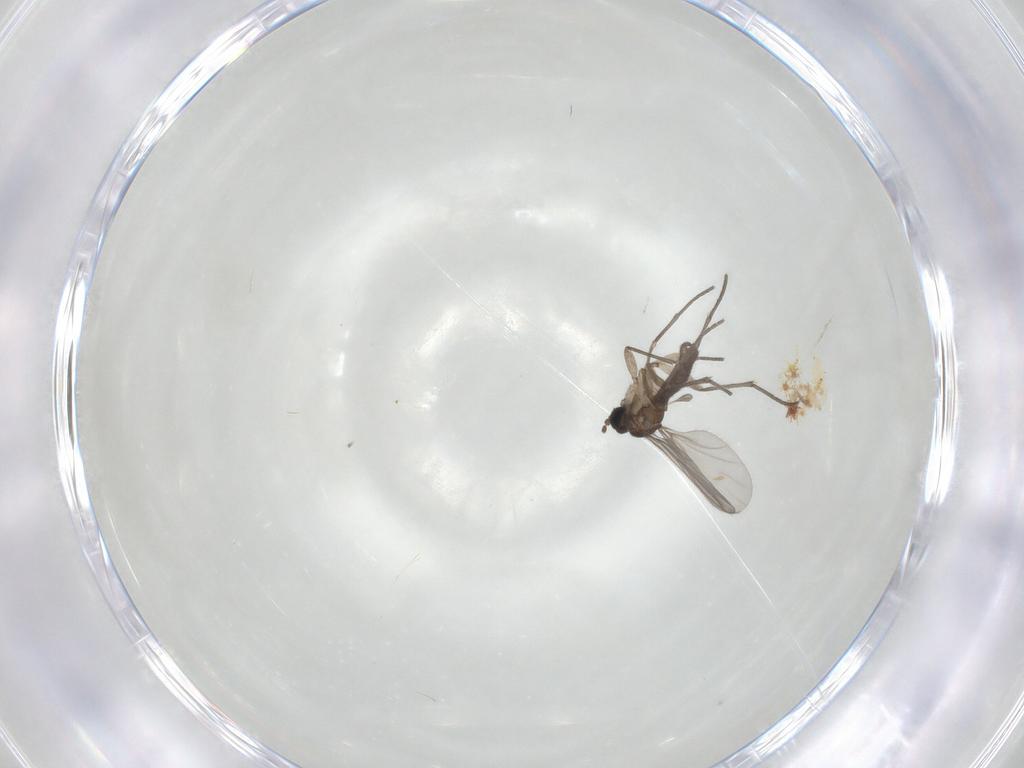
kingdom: Animalia
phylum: Arthropoda
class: Insecta
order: Diptera
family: Sciaridae
